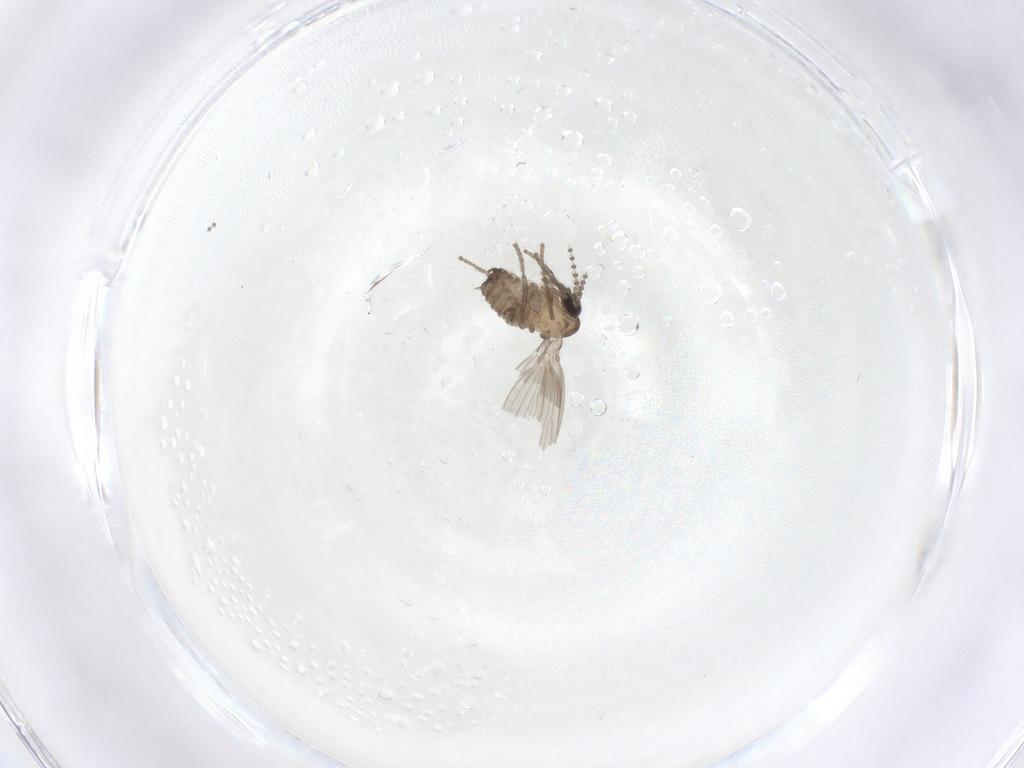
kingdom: Animalia
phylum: Arthropoda
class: Insecta
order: Diptera
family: Psychodidae
